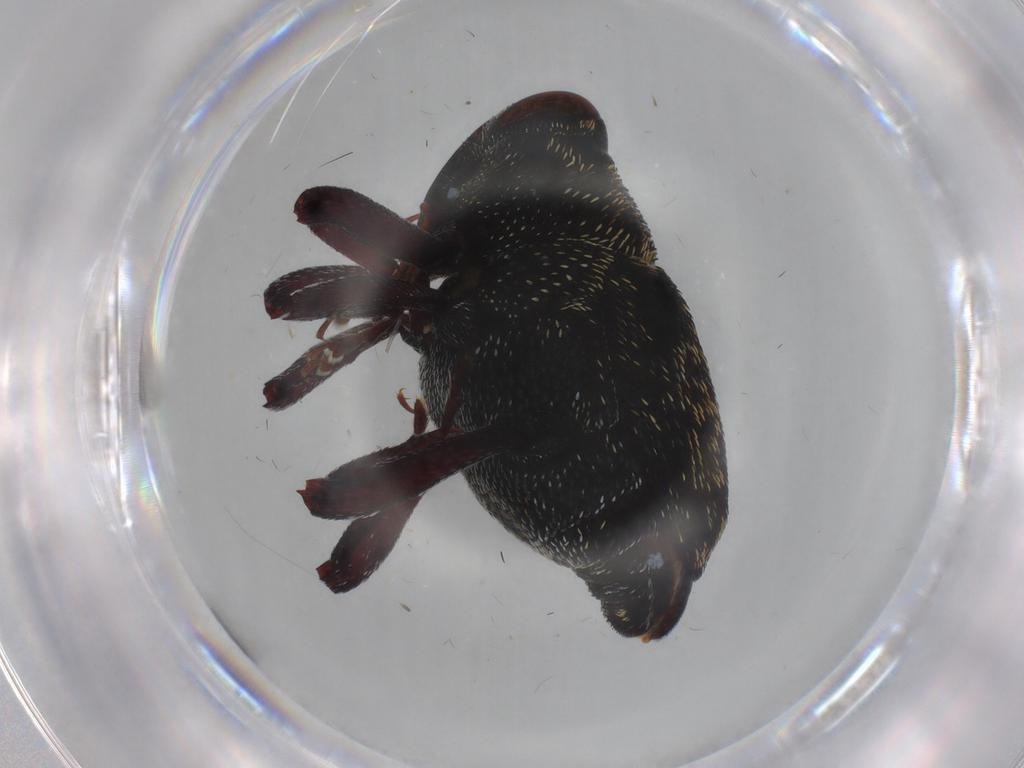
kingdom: Animalia
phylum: Arthropoda
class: Insecta
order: Coleoptera
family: Curculionidae
